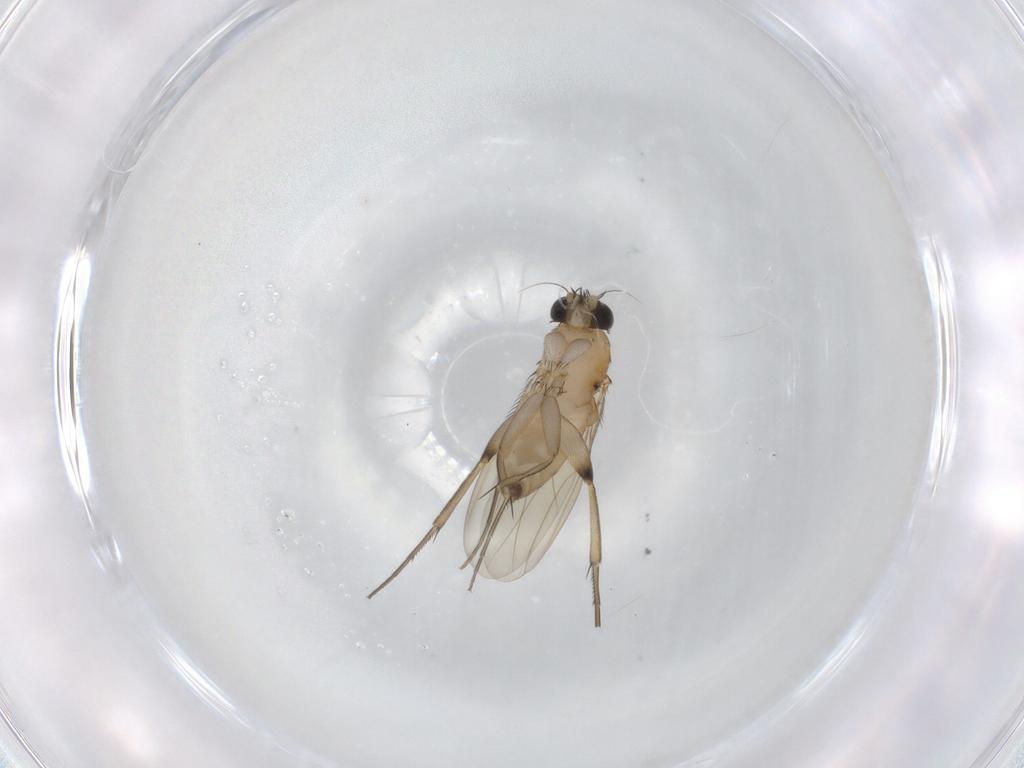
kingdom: Animalia
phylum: Arthropoda
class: Insecta
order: Diptera
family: Phoridae
